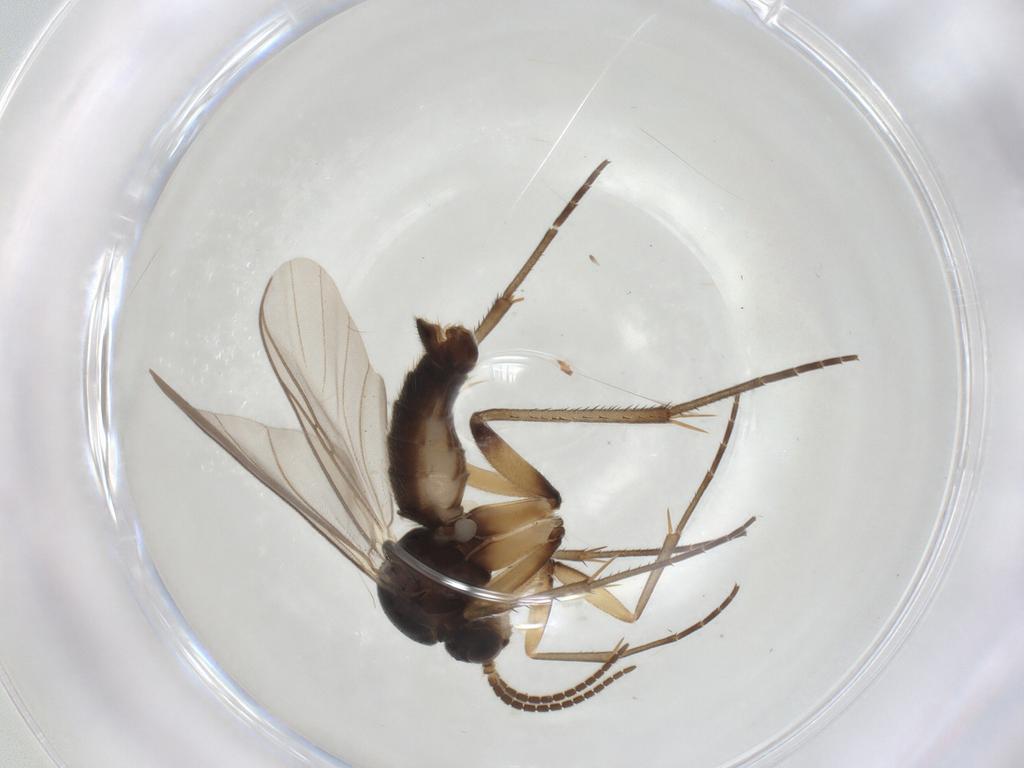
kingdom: Animalia
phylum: Arthropoda
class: Insecta
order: Diptera
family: Mycetophilidae
